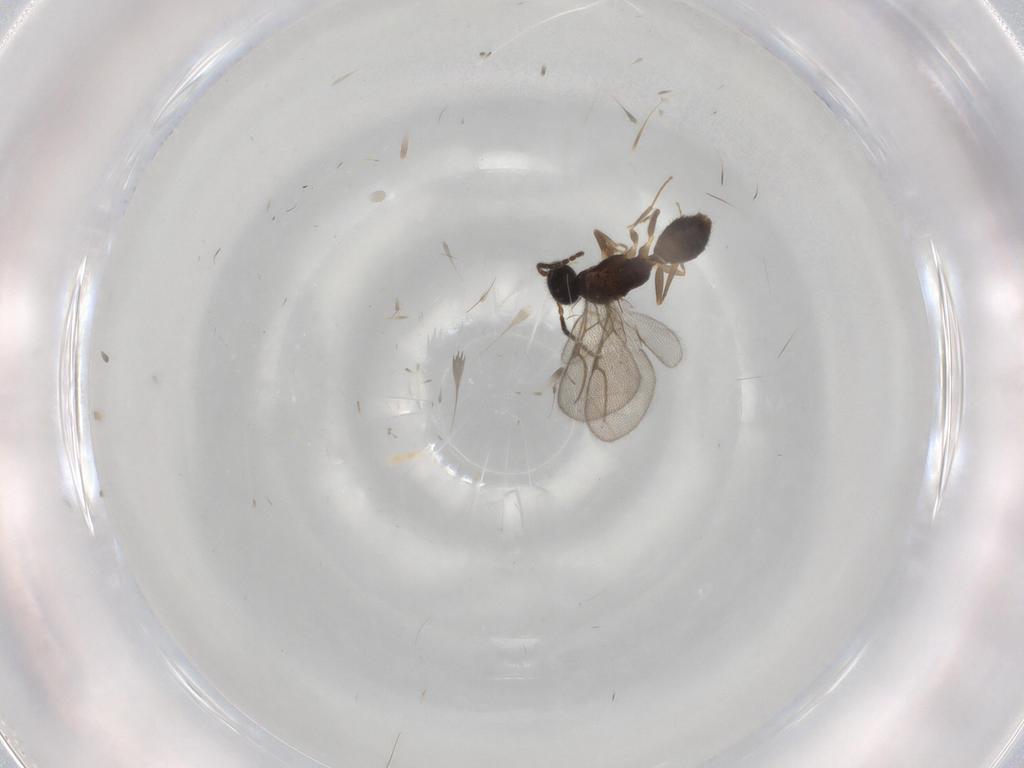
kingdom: Animalia
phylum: Arthropoda
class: Insecta
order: Hymenoptera
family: Bethylidae
